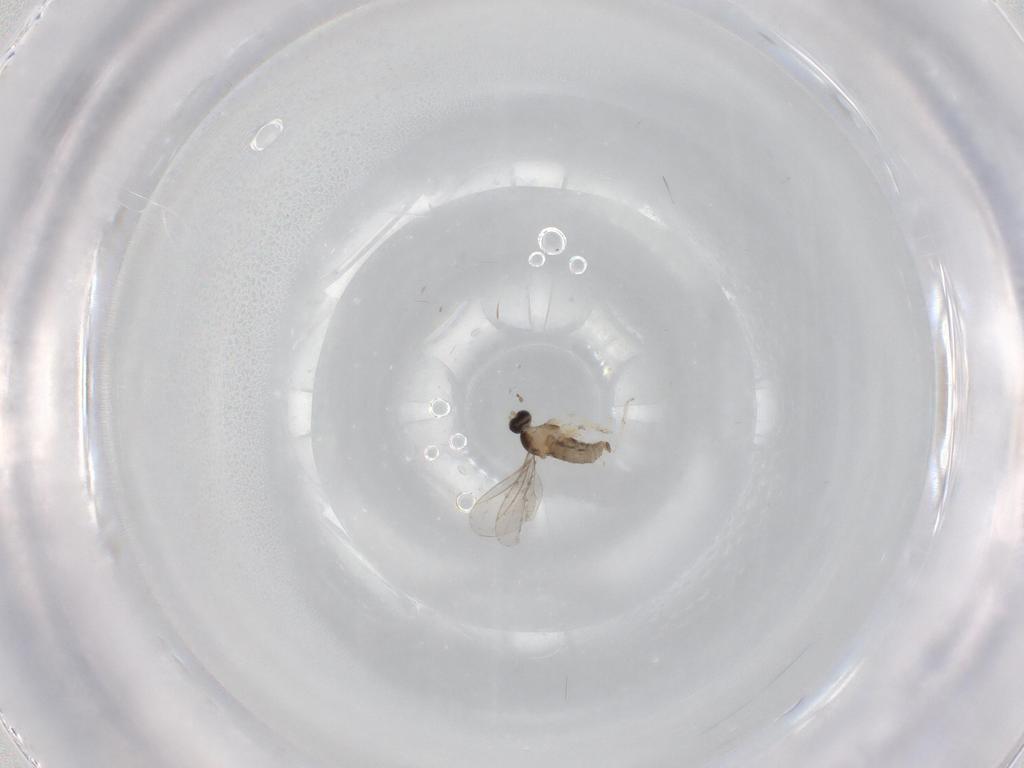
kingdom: Animalia
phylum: Arthropoda
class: Insecta
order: Diptera
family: Cecidomyiidae
